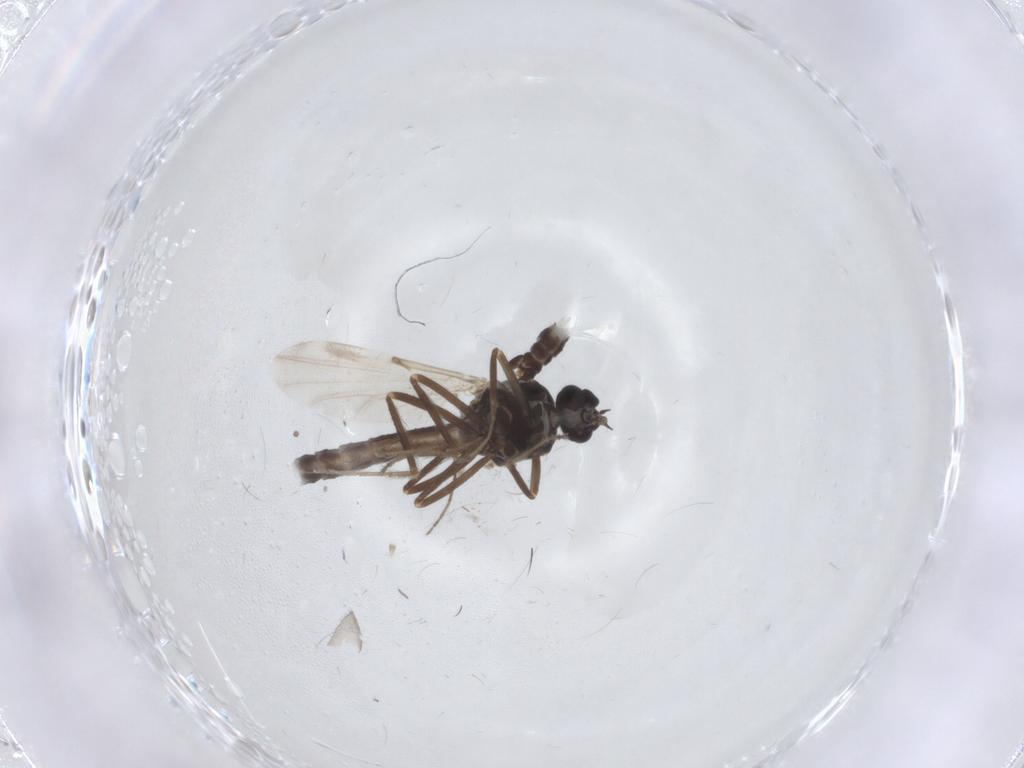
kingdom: Animalia
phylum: Arthropoda
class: Insecta
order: Diptera
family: Ceratopogonidae
